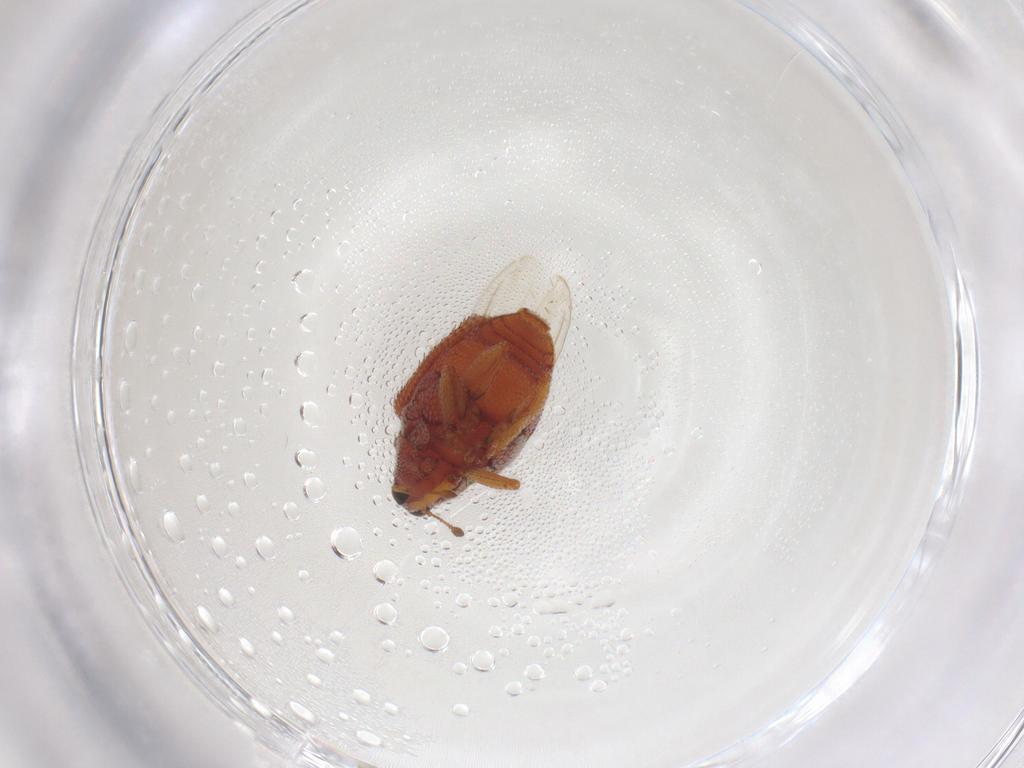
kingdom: Animalia
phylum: Arthropoda
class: Insecta
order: Coleoptera
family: Curculionidae
